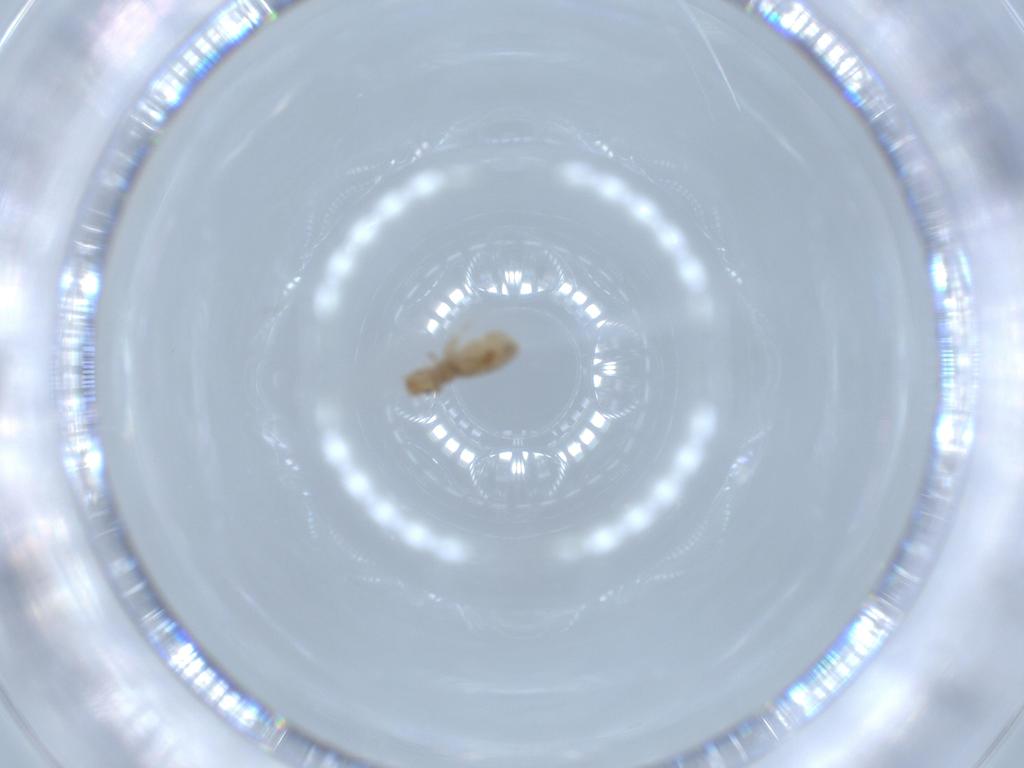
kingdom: Animalia
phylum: Arthropoda
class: Insecta
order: Psocodea
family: Liposcelididae
